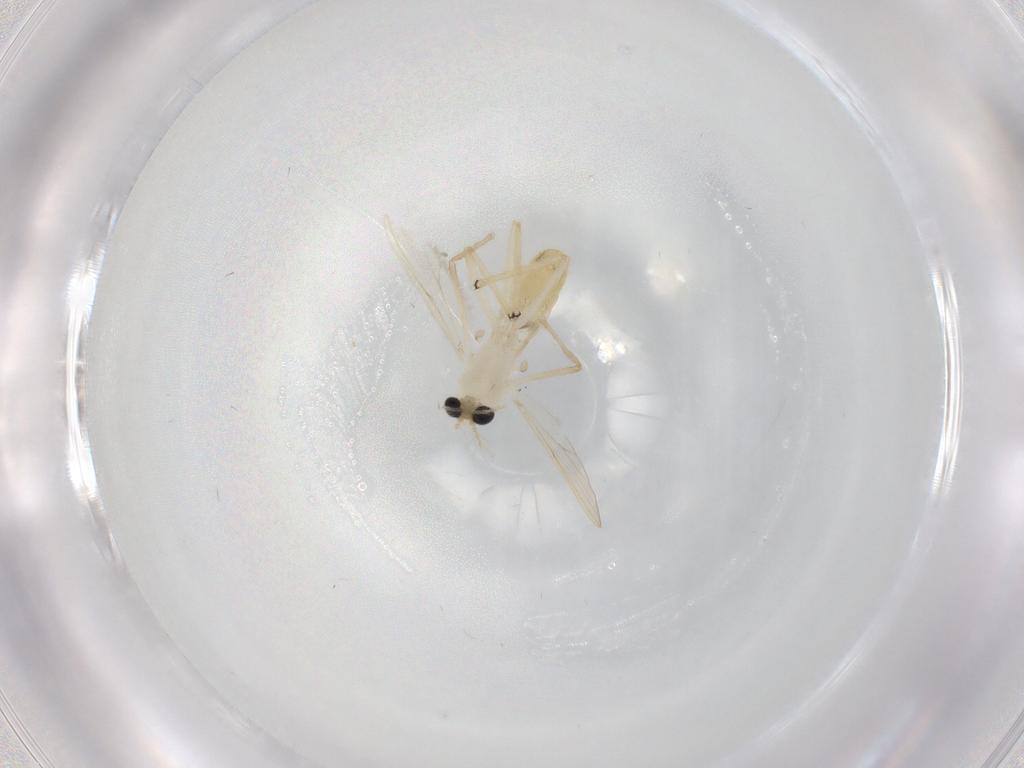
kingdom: Animalia
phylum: Arthropoda
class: Insecta
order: Diptera
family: Chironomidae
